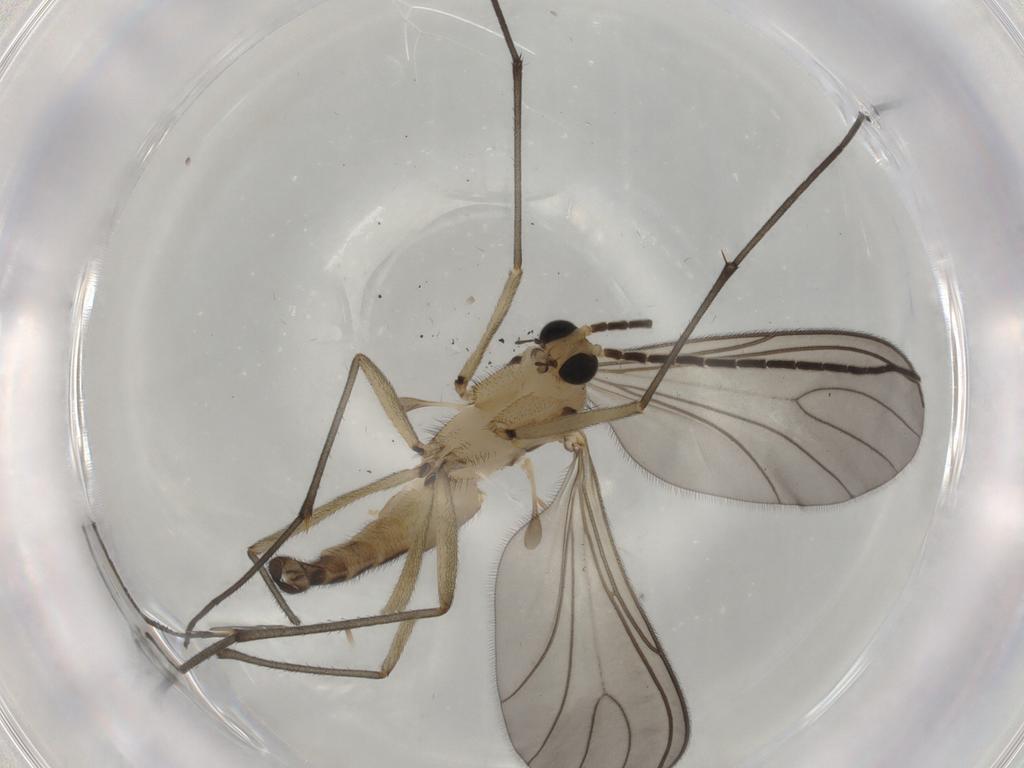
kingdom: Animalia
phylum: Arthropoda
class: Insecta
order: Diptera
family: Sciaridae
